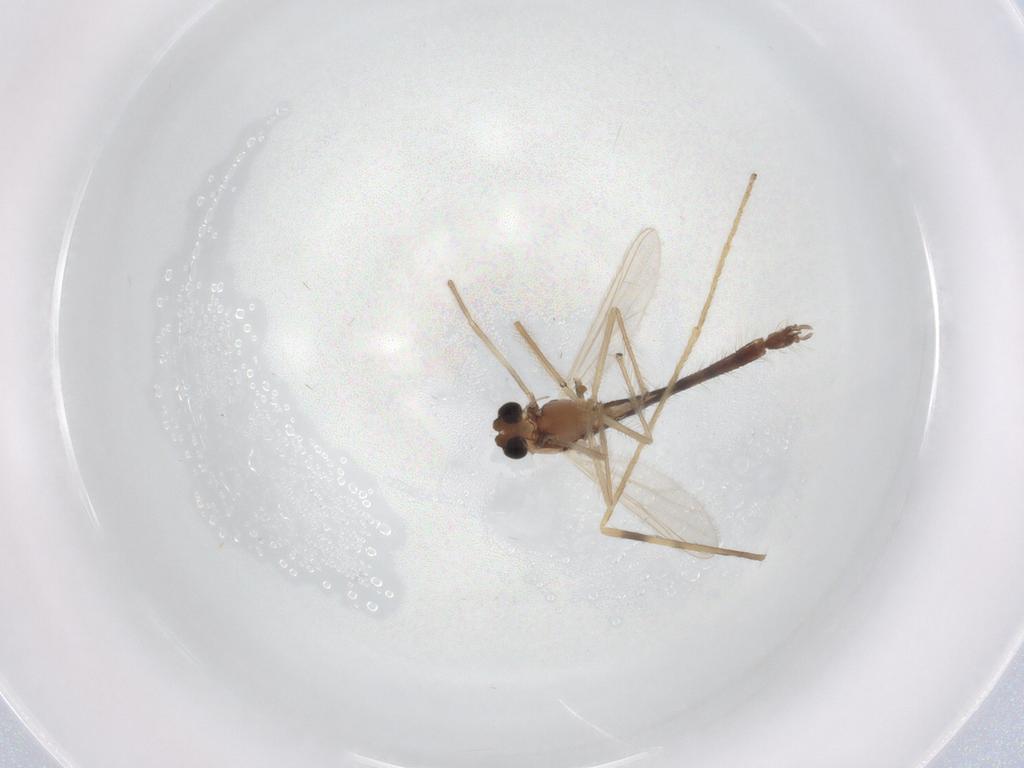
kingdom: Animalia
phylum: Arthropoda
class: Insecta
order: Diptera
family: Chironomidae
